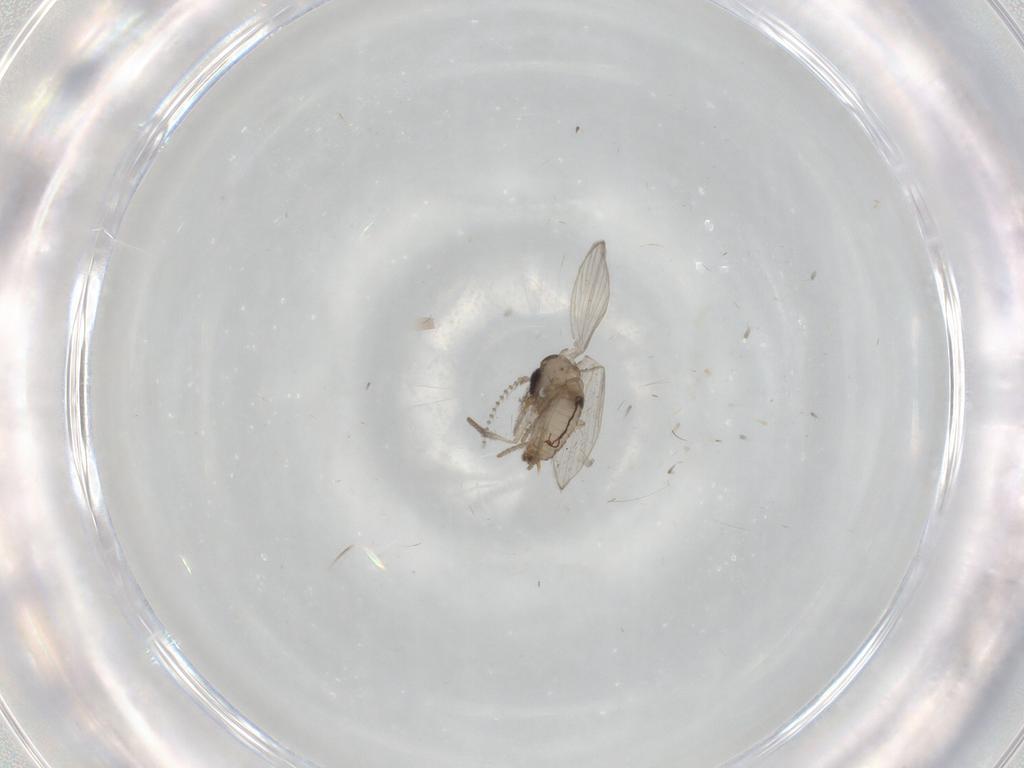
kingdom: Animalia
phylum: Arthropoda
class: Insecta
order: Diptera
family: Psychodidae
